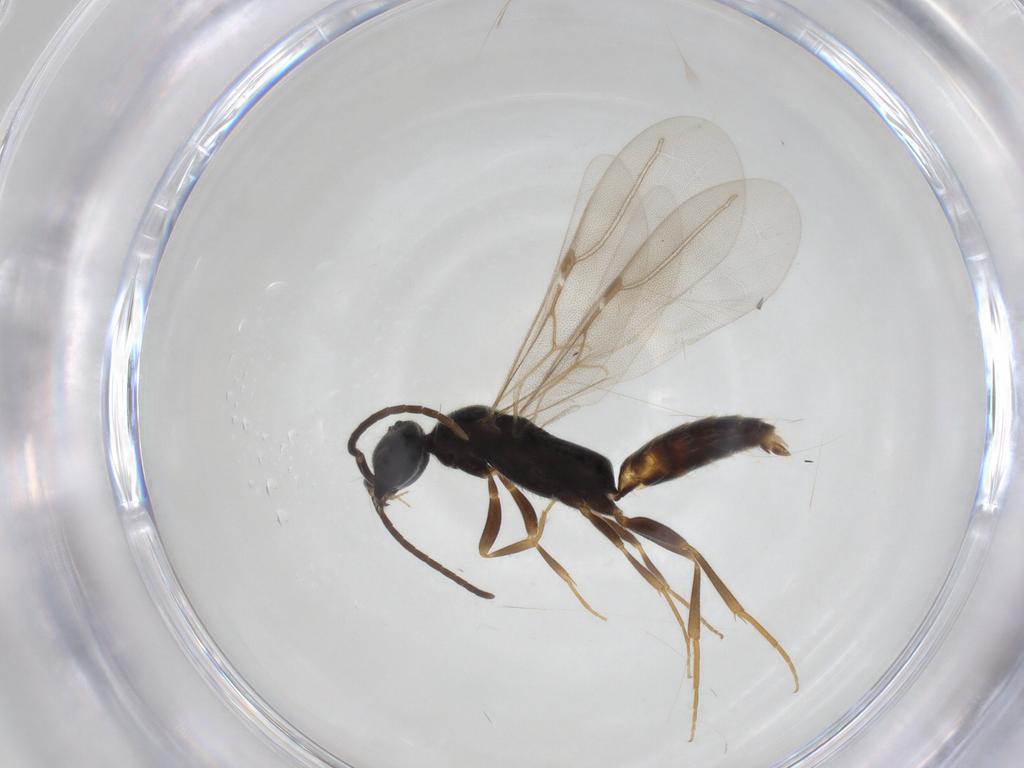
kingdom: Animalia
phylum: Arthropoda
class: Insecta
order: Hymenoptera
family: Bethylidae
